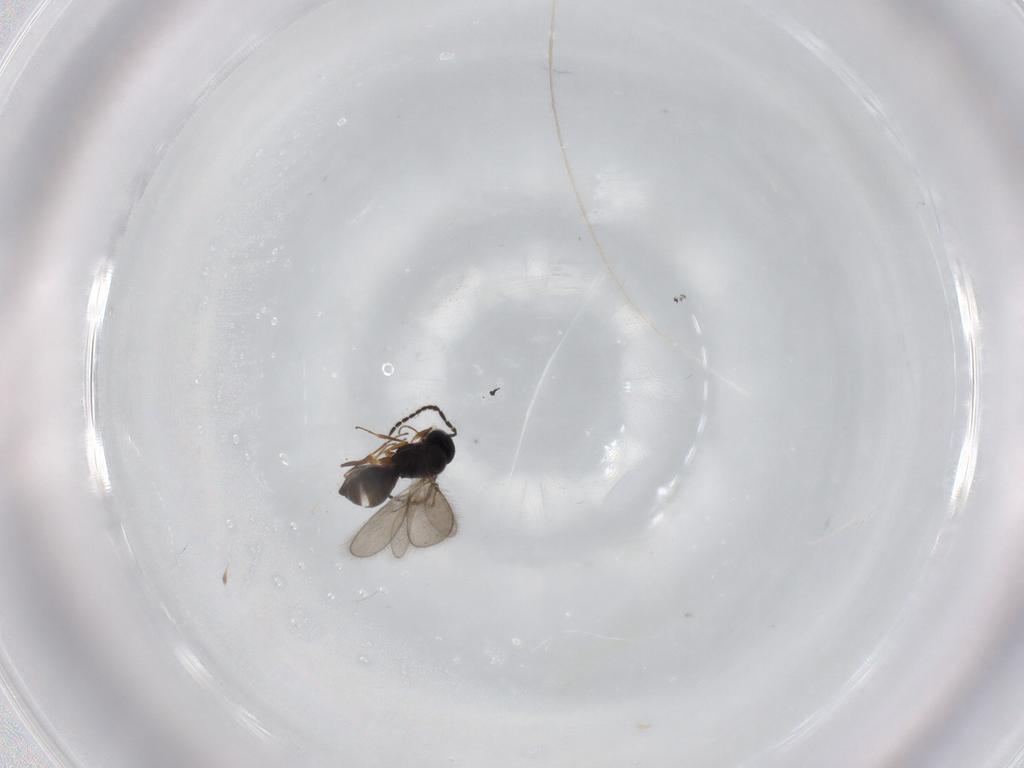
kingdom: Animalia
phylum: Arthropoda
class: Insecta
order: Hymenoptera
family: Scelionidae
